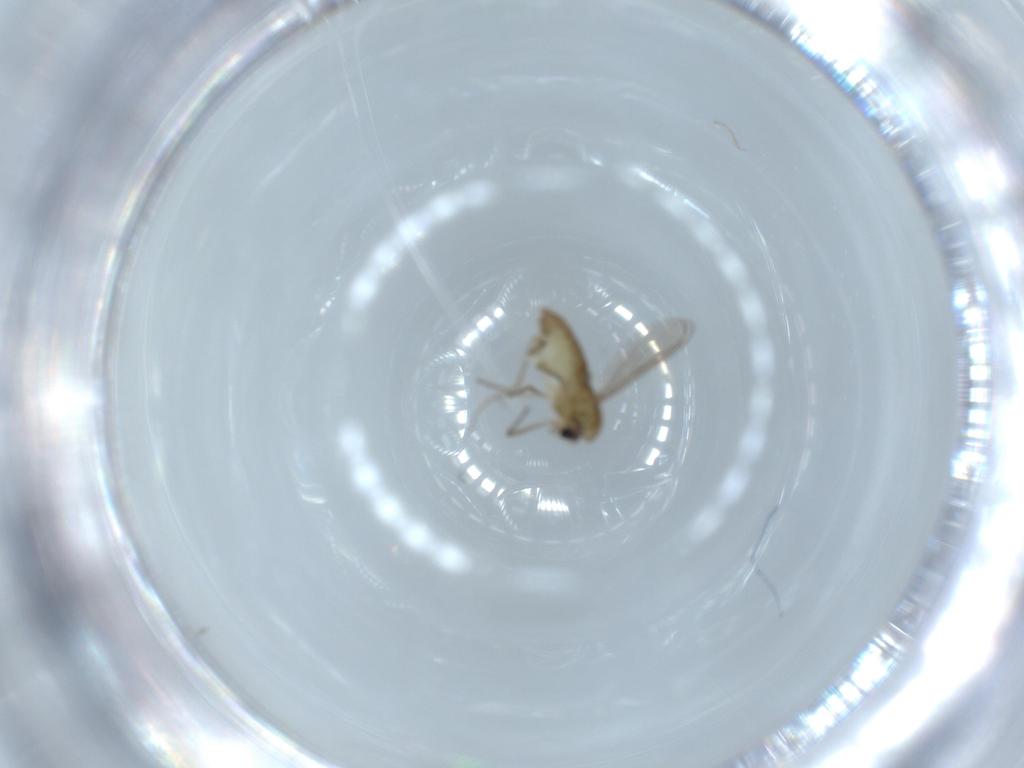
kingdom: Animalia
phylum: Arthropoda
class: Insecta
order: Diptera
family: Chironomidae
